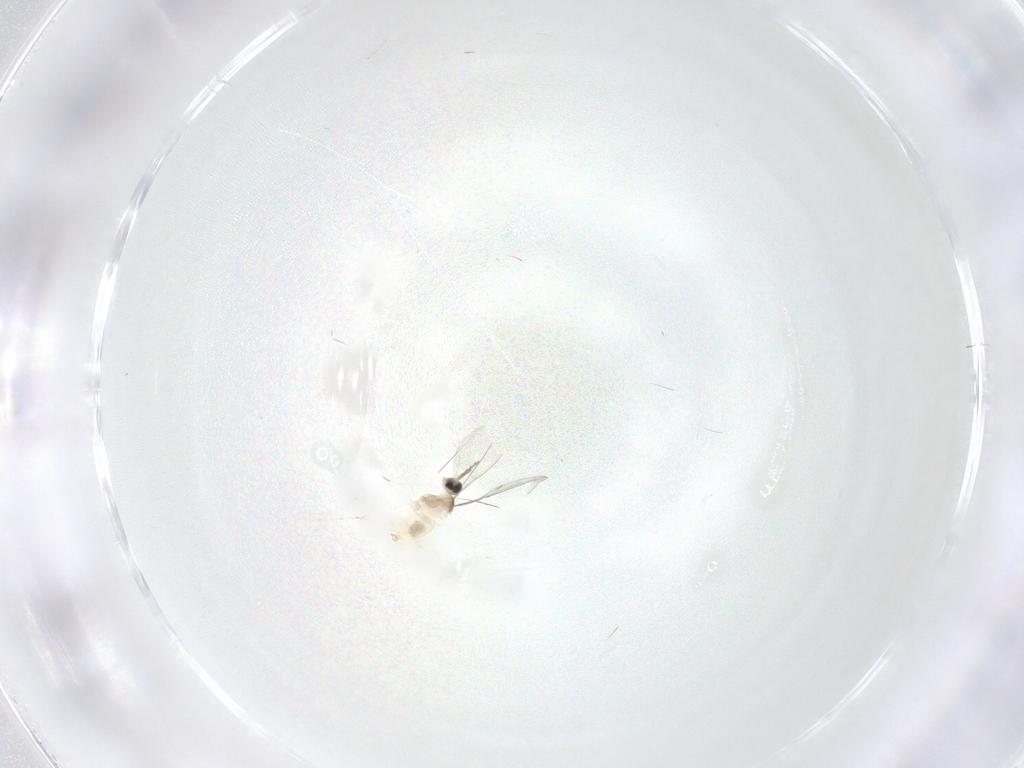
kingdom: Animalia
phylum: Arthropoda
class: Insecta
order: Diptera
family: Cecidomyiidae
